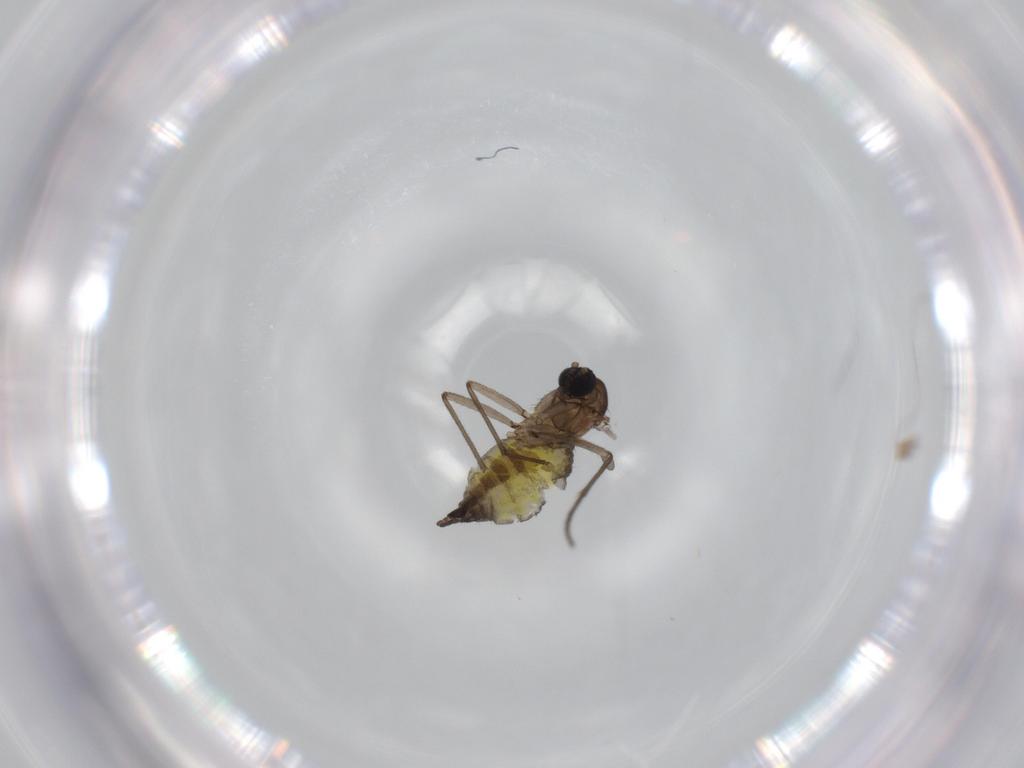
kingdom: Animalia
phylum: Arthropoda
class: Insecta
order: Diptera
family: Sciaridae
